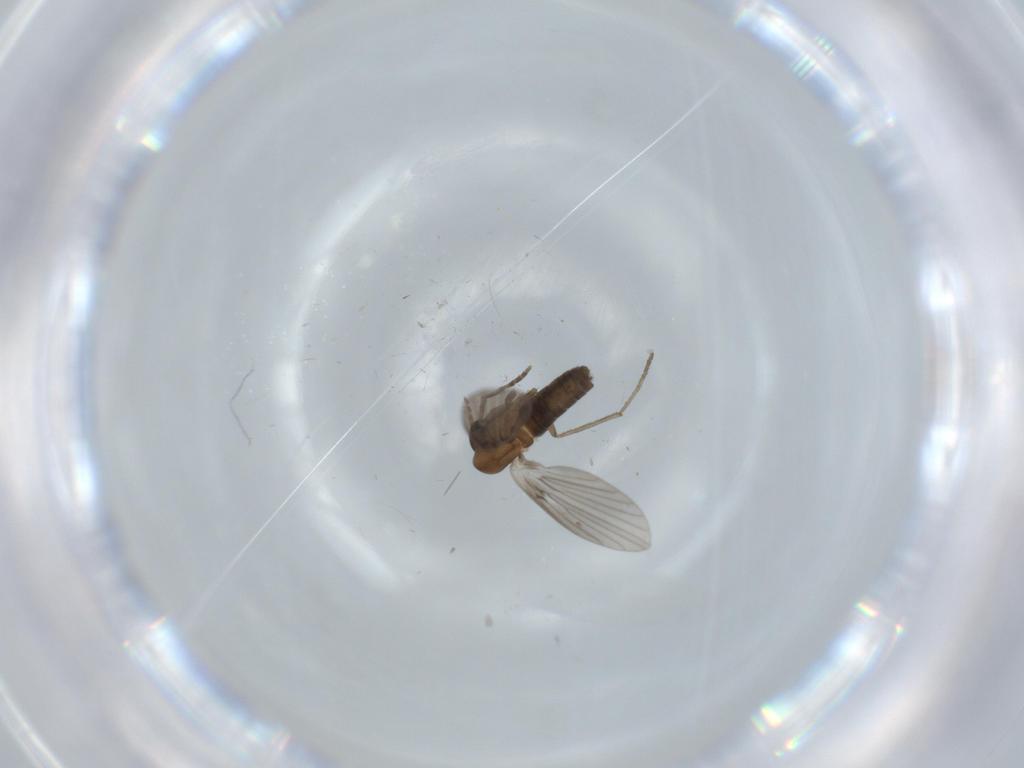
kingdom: Animalia
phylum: Arthropoda
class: Insecta
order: Diptera
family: Psychodidae
